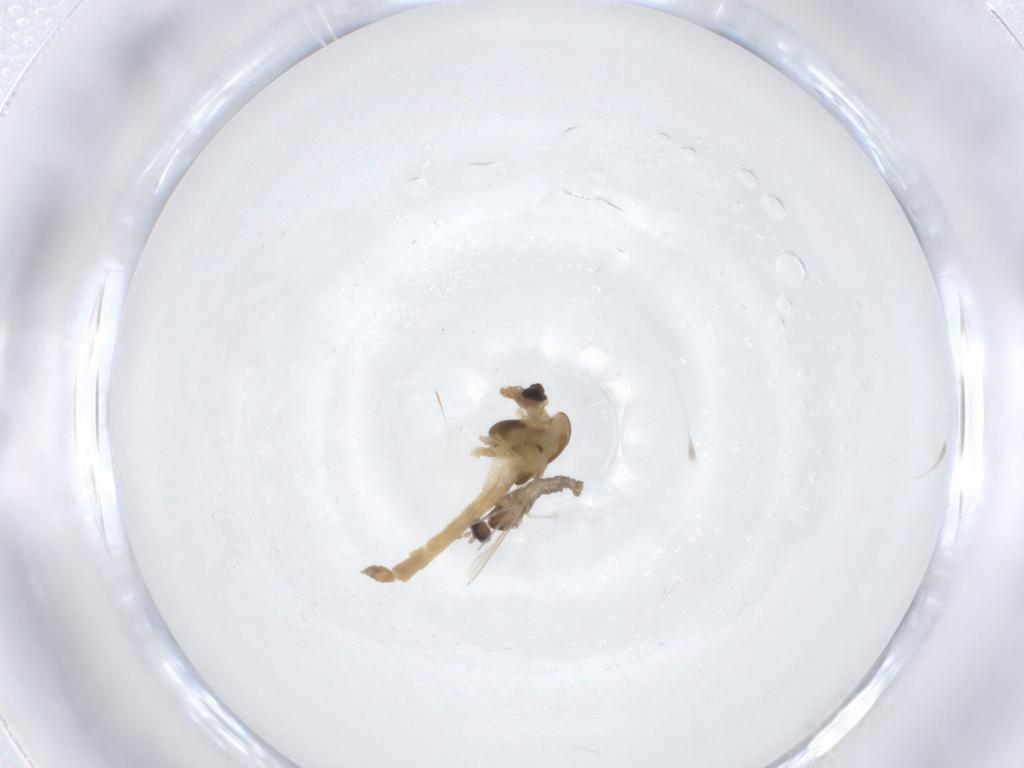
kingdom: Animalia
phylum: Arthropoda
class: Insecta
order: Diptera
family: Chironomidae
